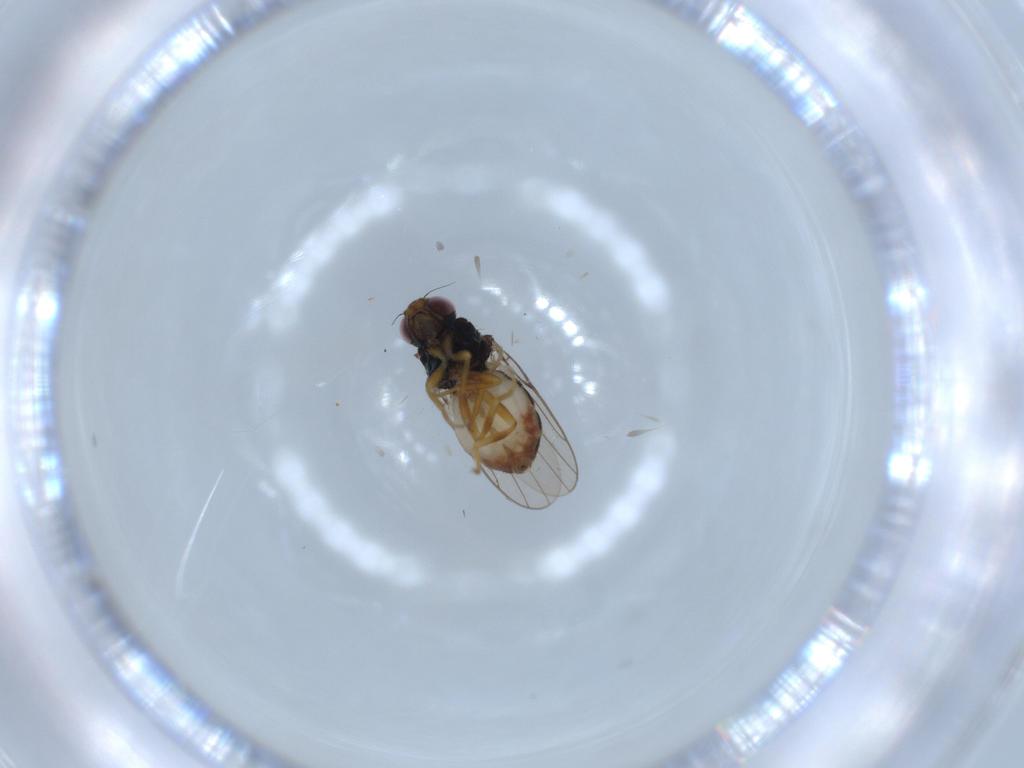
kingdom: Animalia
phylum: Arthropoda
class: Insecta
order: Diptera
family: Chloropidae
